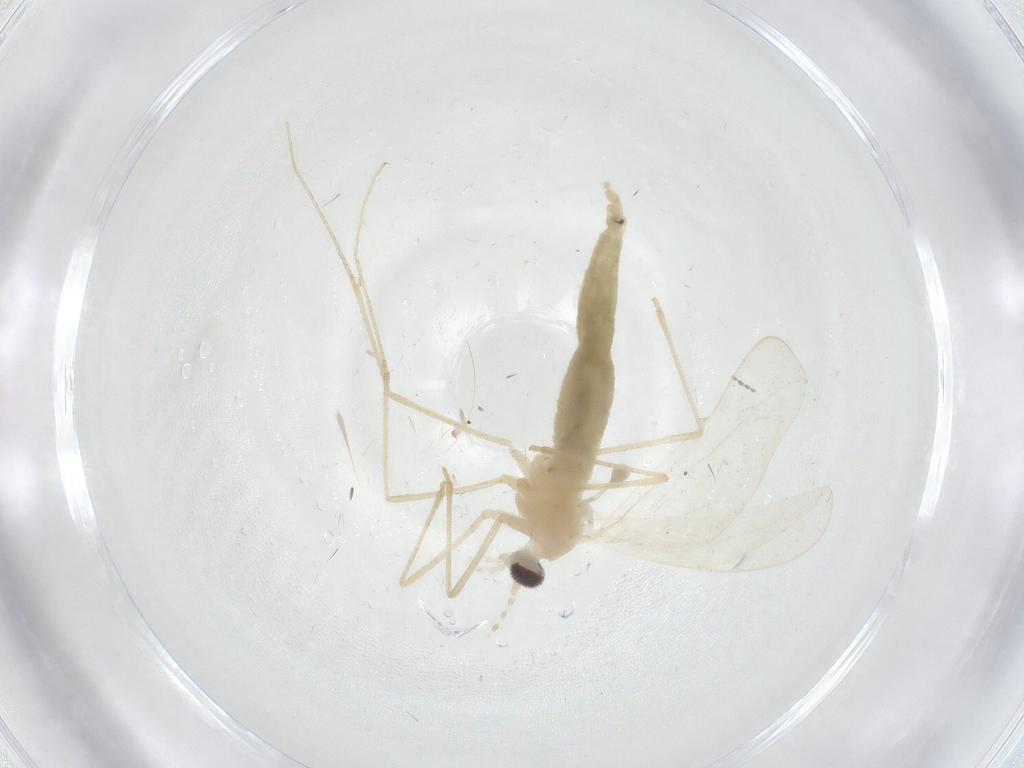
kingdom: Animalia
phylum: Arthropoda
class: Insecta
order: Diptera
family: Cecidomyiidae
